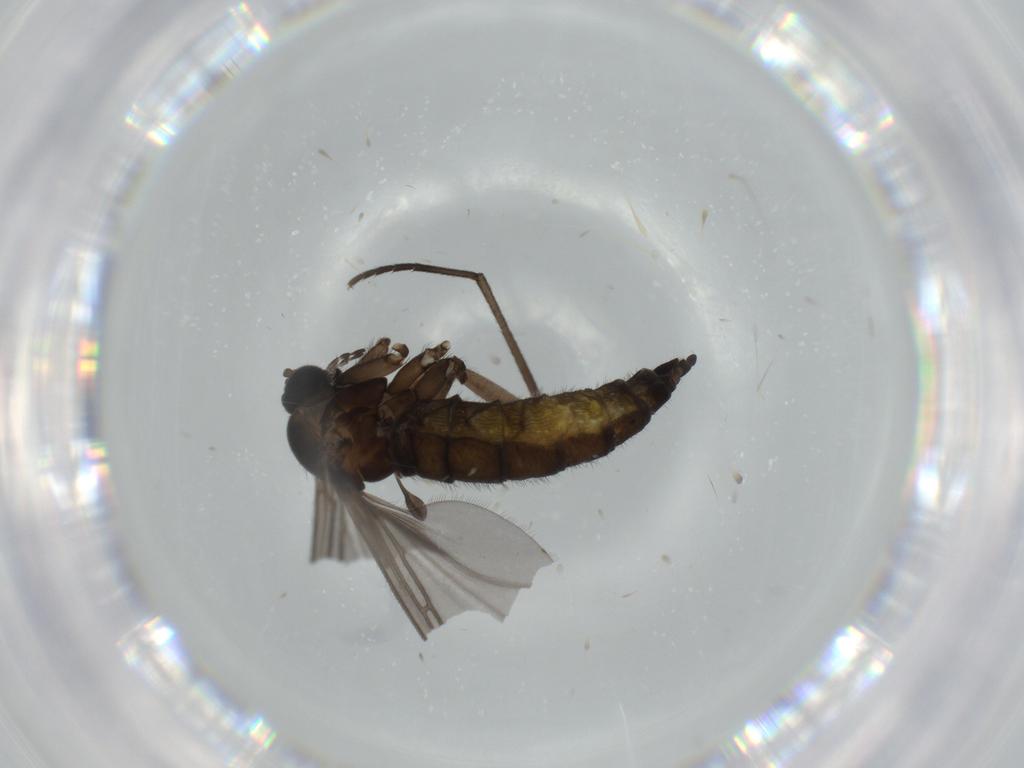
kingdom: Animalia
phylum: Arthropoda
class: Insecta
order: Diptera
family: Sciaridae
